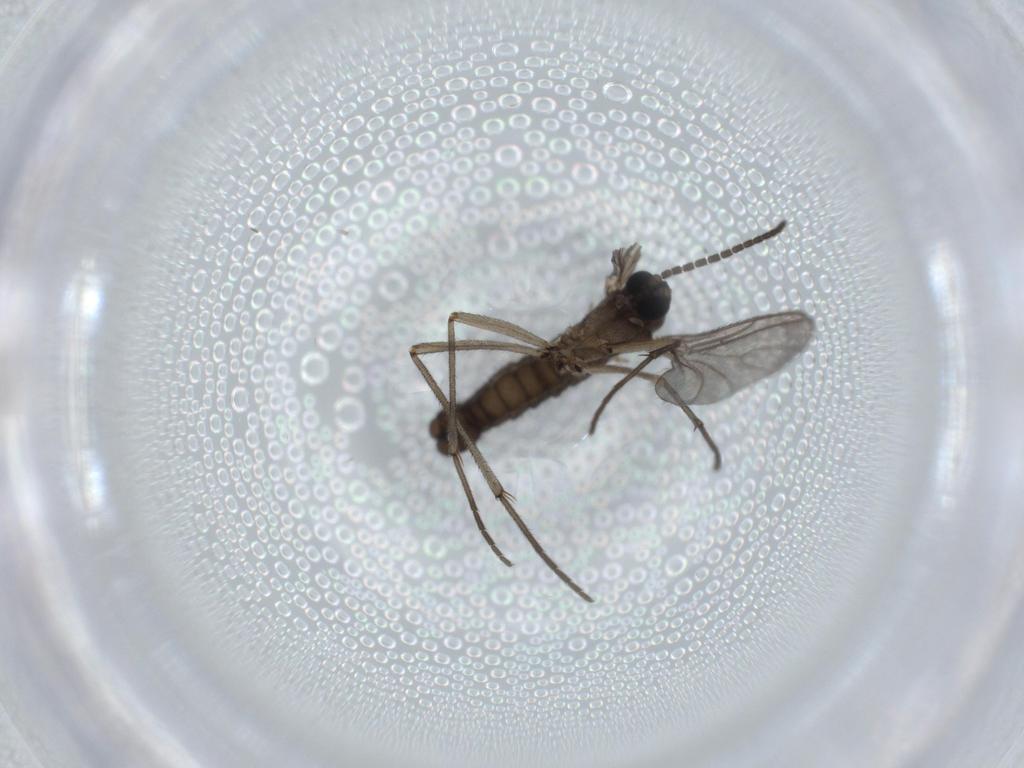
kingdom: Animalia
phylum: Arthropoda
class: Insecta
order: Diptera
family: Sciaridae
